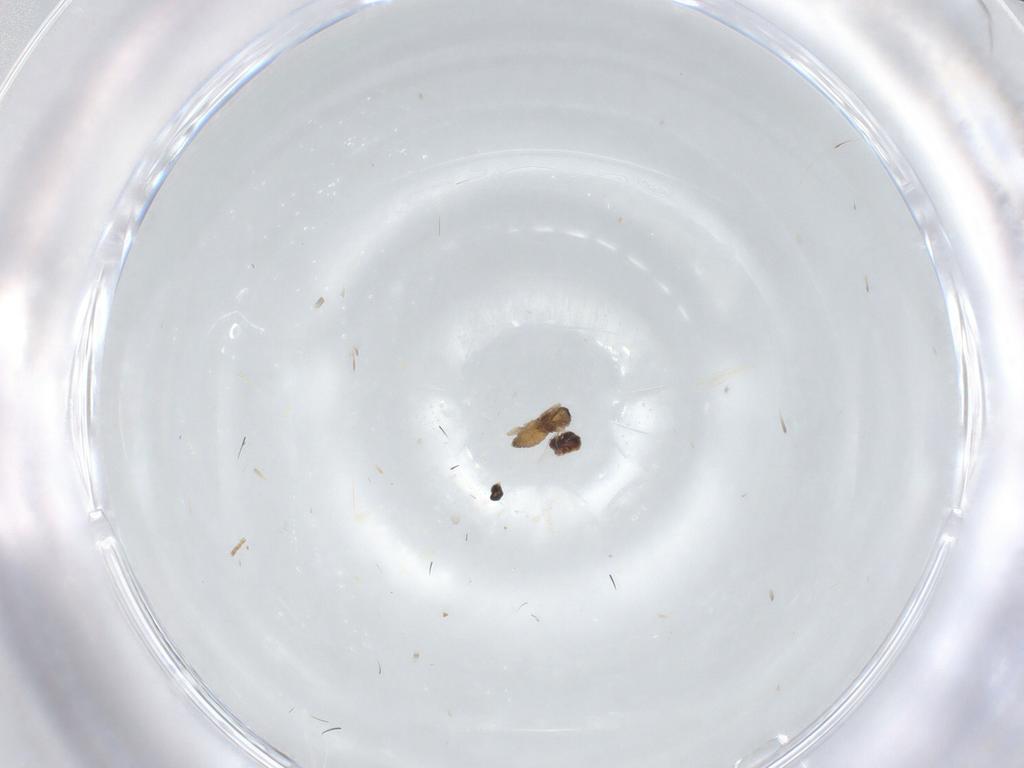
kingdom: Animalia
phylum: Arthropoda
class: Insecta
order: Diptera
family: Cecidomyiidae
